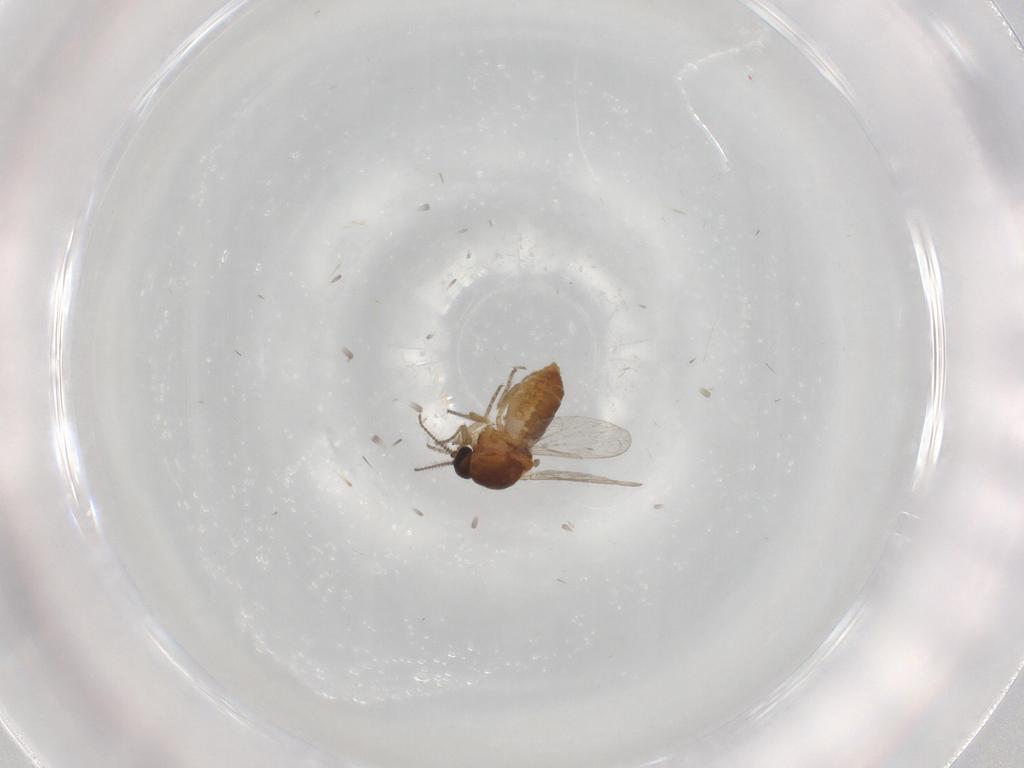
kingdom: Animalia
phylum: Arthropoda
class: Insecta
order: Diptera
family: Ceratopogonidae
